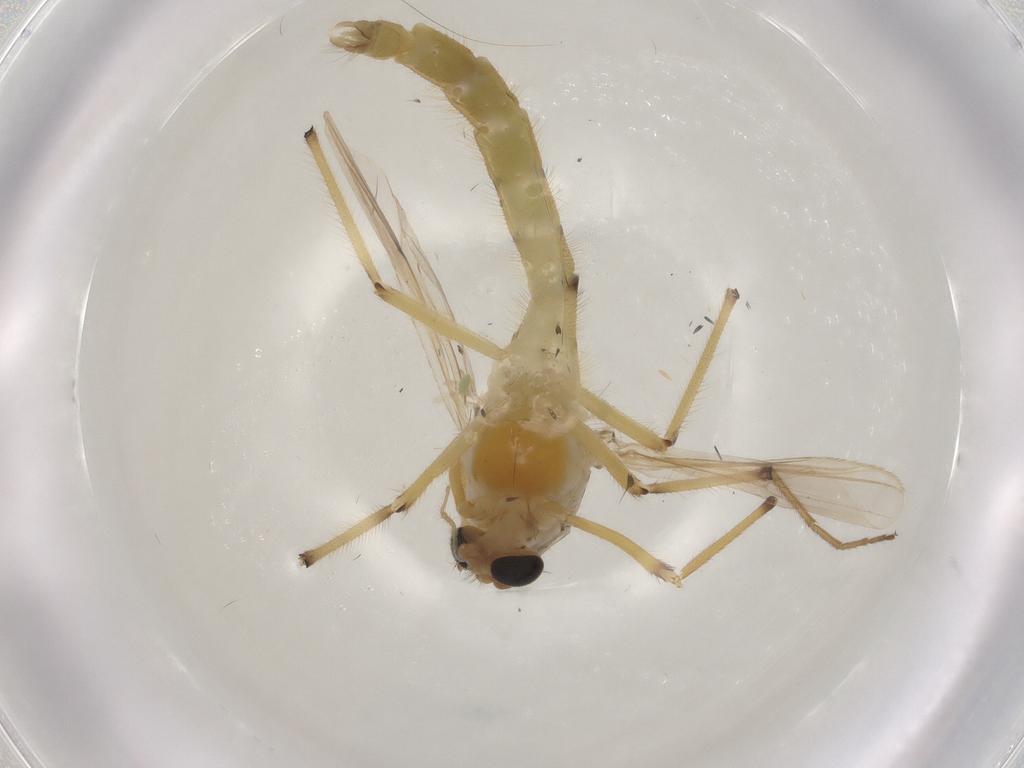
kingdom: Animalia
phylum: Arthropoda
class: Insecta
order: Diptera
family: Chironomidae
